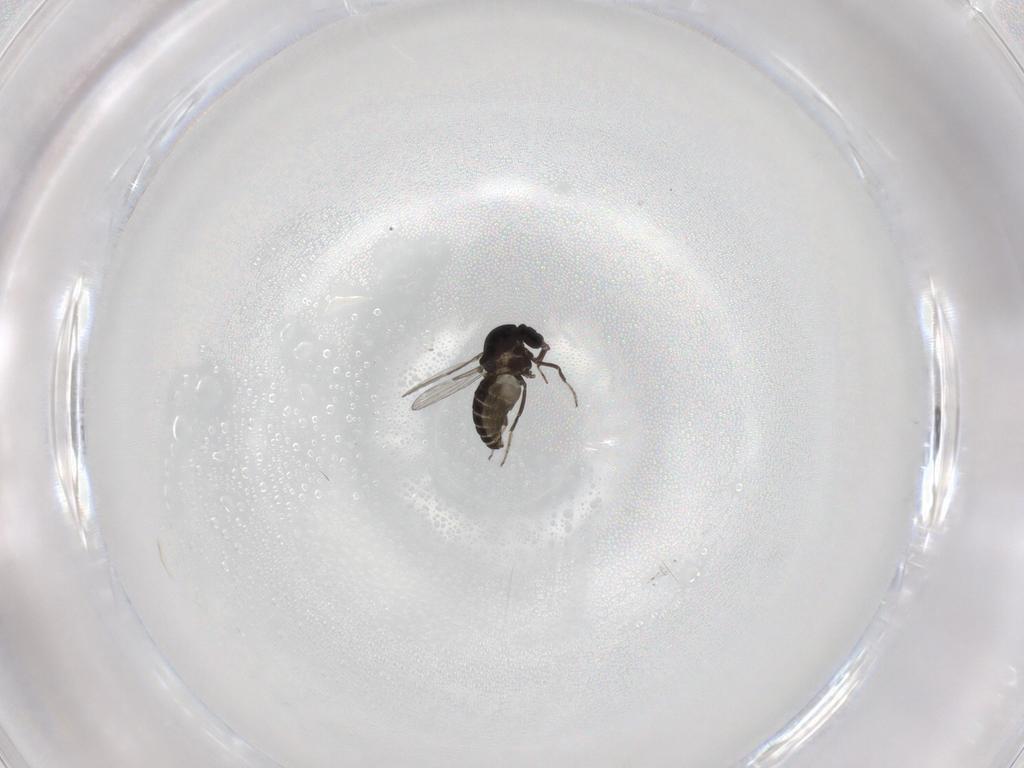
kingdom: Animalia
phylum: Arthropoda
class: Insecta
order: Diptera
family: Ceratopogonidae
